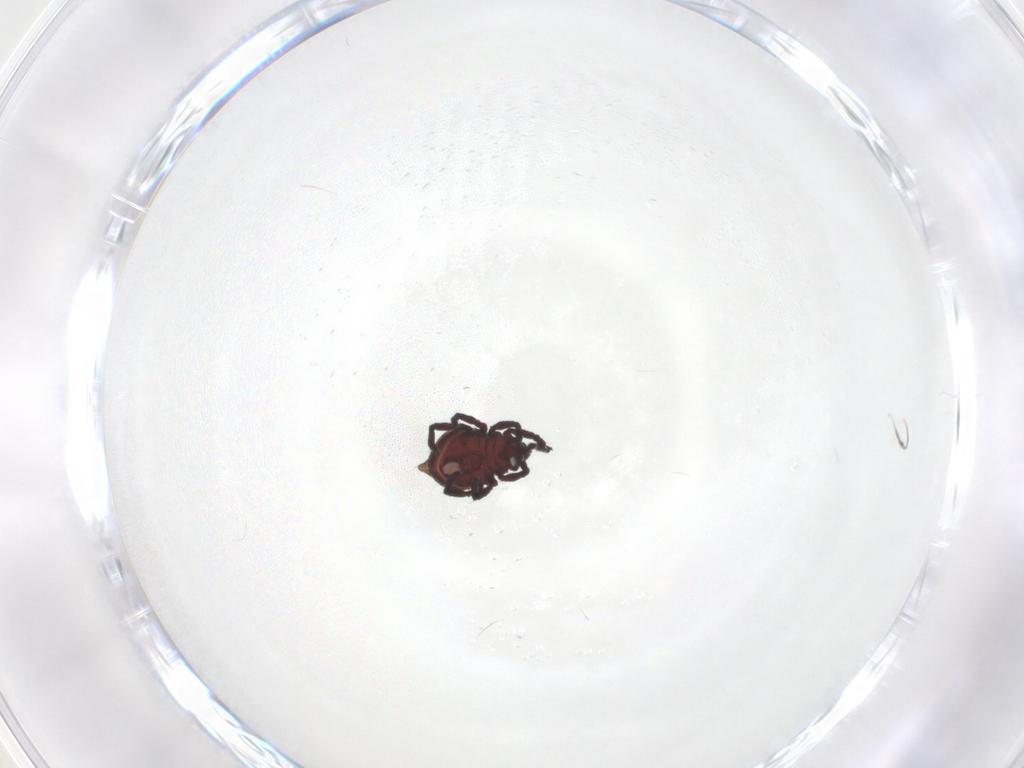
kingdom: Animalia
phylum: Arthropoda
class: Arachnida
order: Sarcoptiformes
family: Neoliodidae
